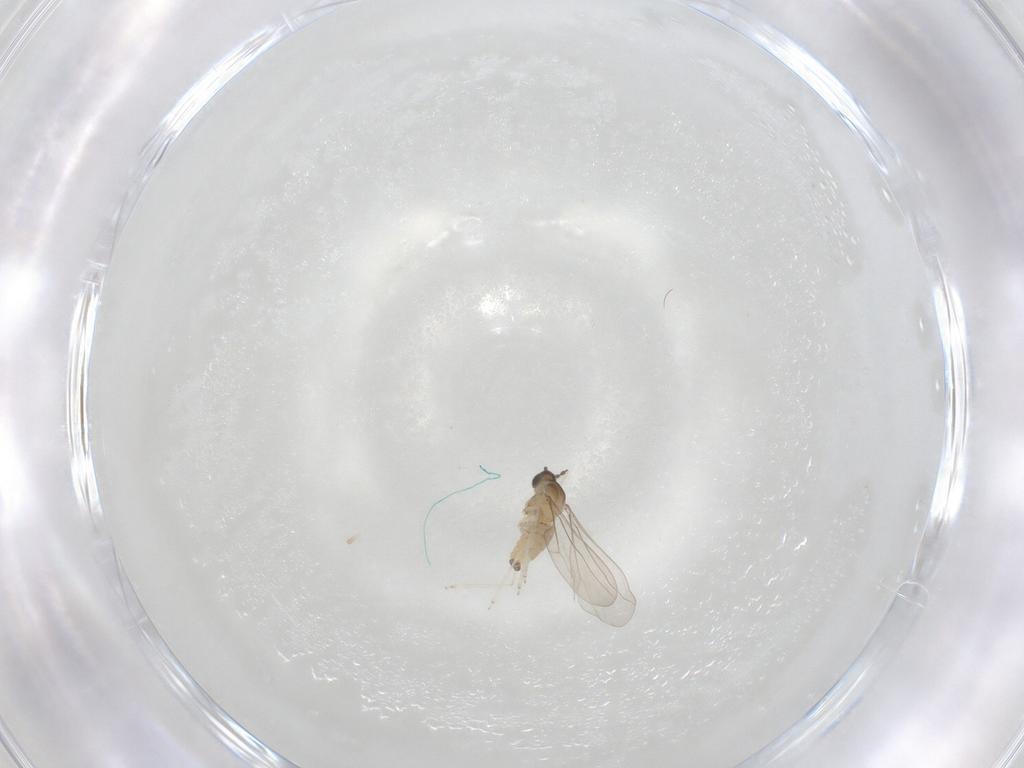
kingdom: Animalia
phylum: Arthropoda
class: Insecta
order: Diptera
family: Cecidomyiidae
